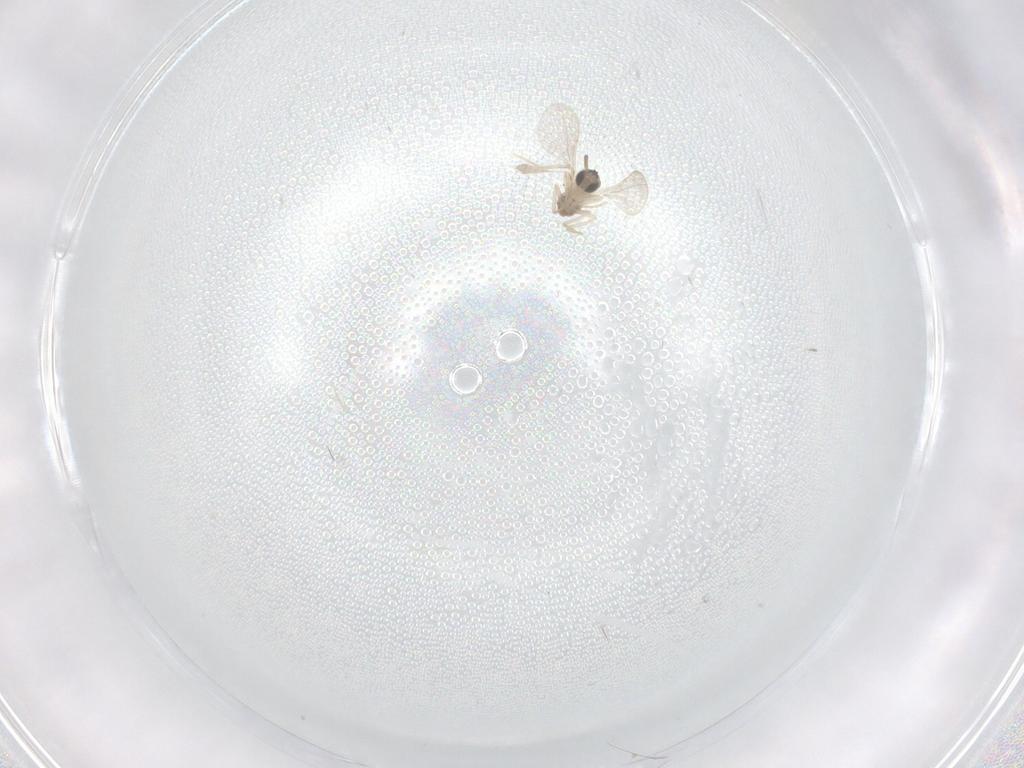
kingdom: Animalia
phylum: Arthropoda
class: Insecta
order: Diptera
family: Cecidomyiidae
